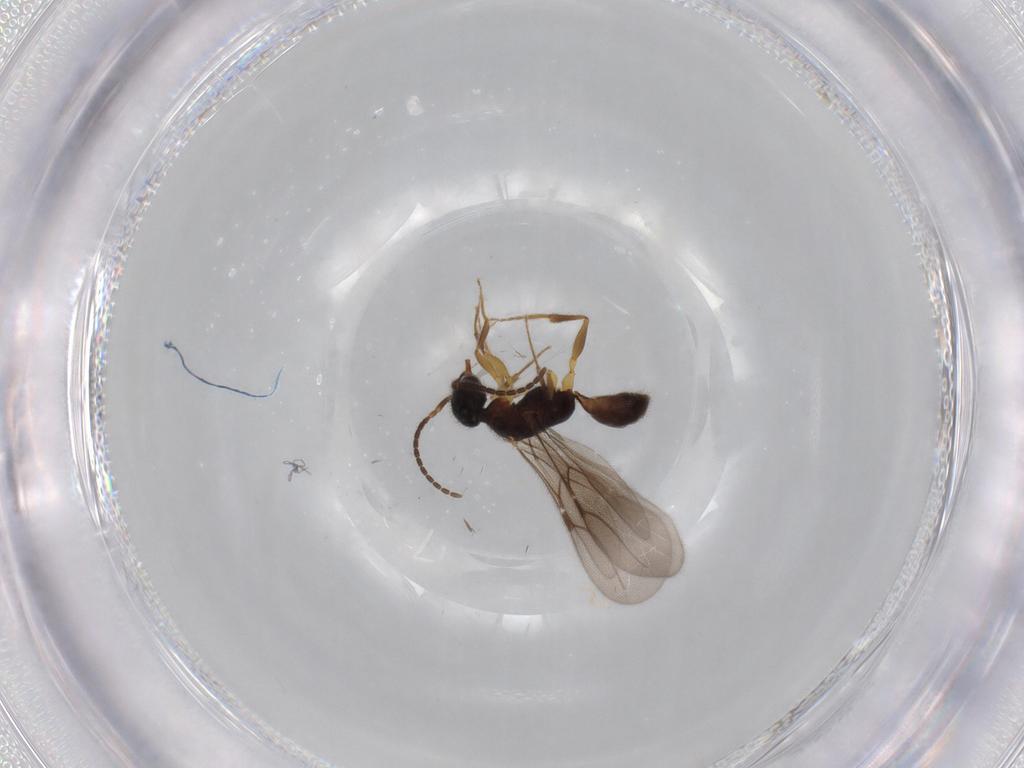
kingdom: Animalia
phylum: Arthropoda
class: Insecta
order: Hymenoptera
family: Bethylidae
